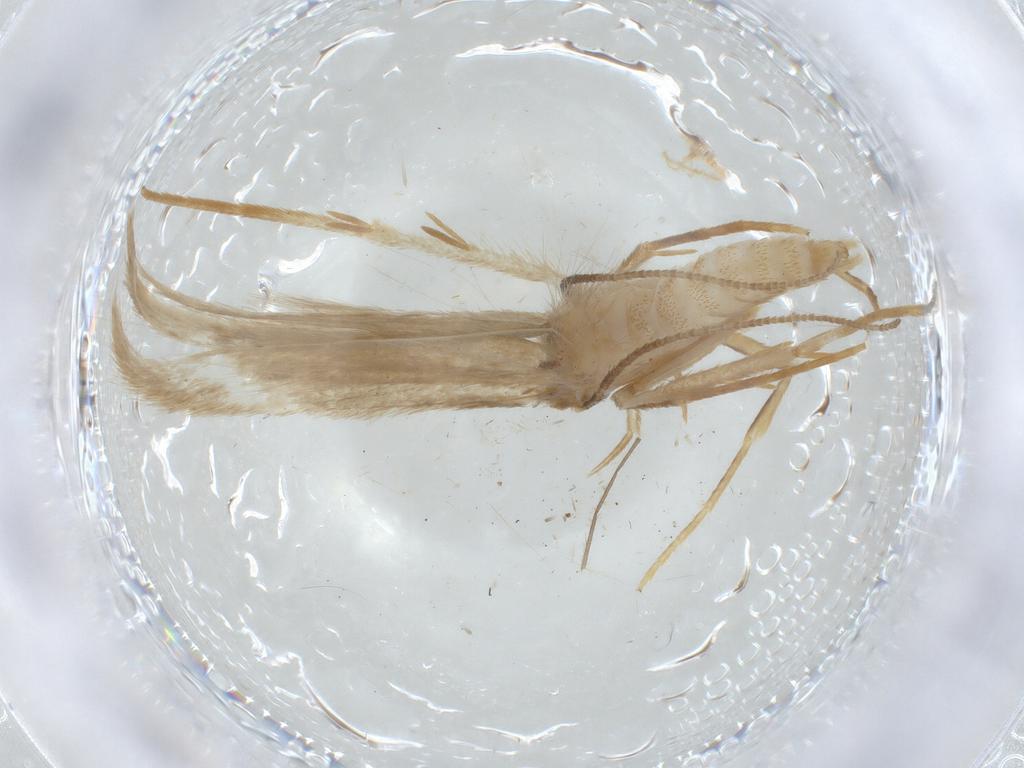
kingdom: Animalia
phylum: Arthropoda
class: Insecta
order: Lepidoptera
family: Oecophoridae
